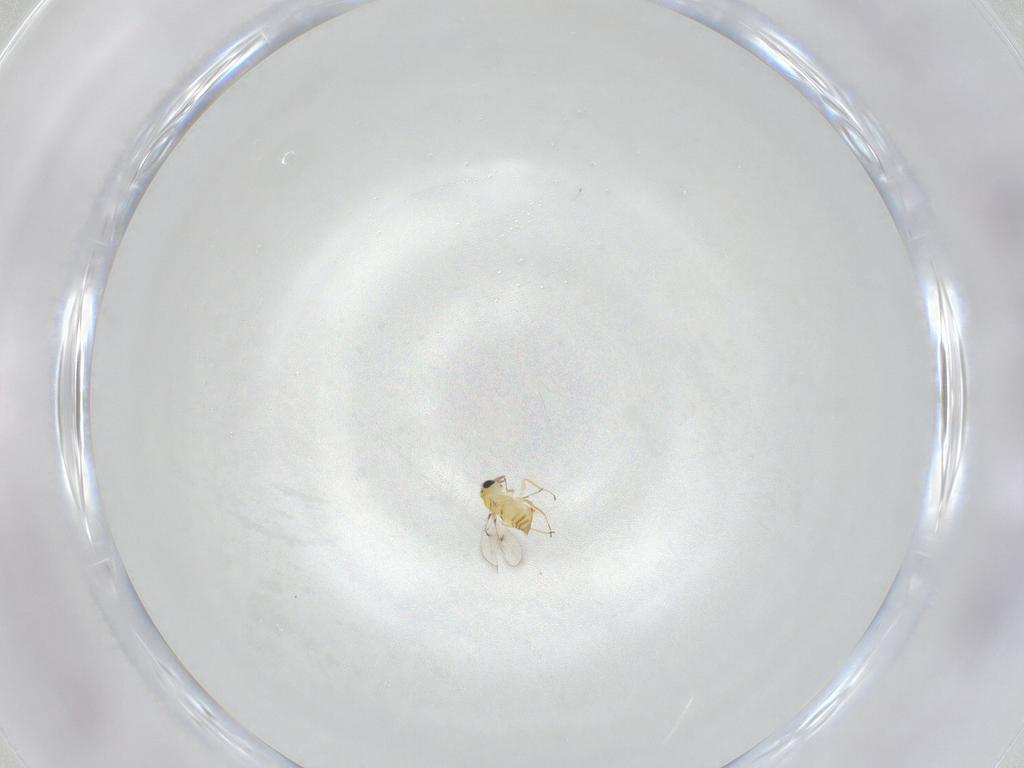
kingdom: Animalia
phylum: Arthropoda
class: Insecta
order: Hymenoptera
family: Trichogrammatidae
